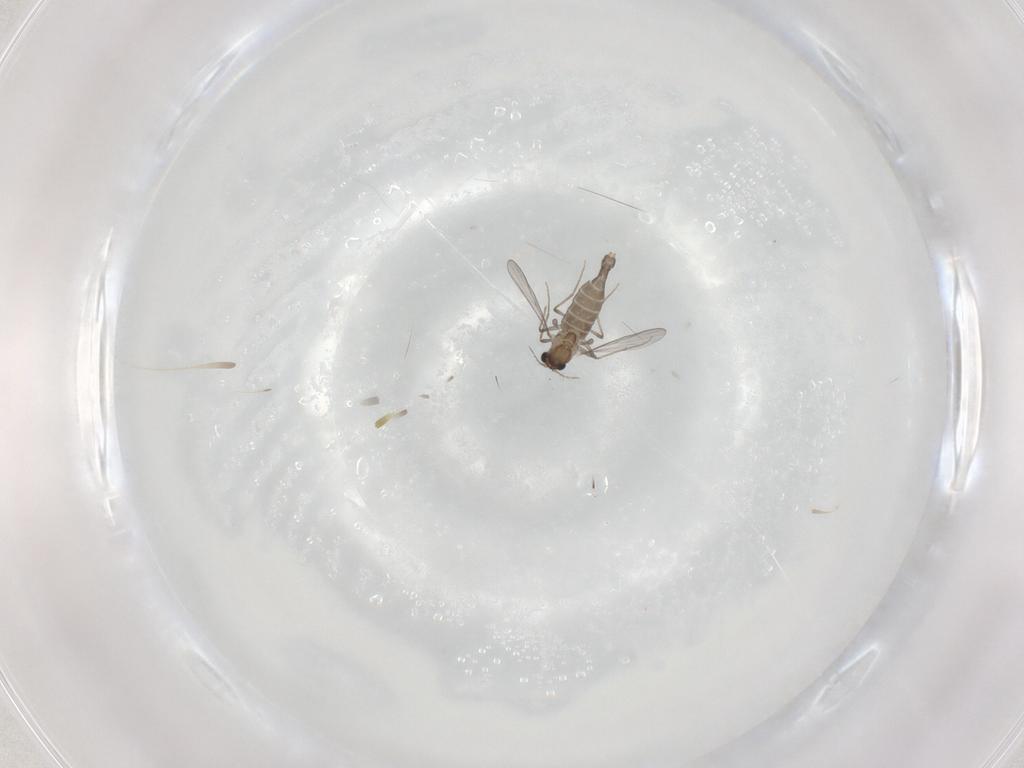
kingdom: Animalia
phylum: Arthropoda
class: Insecta
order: Diptera
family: Chironomidae
